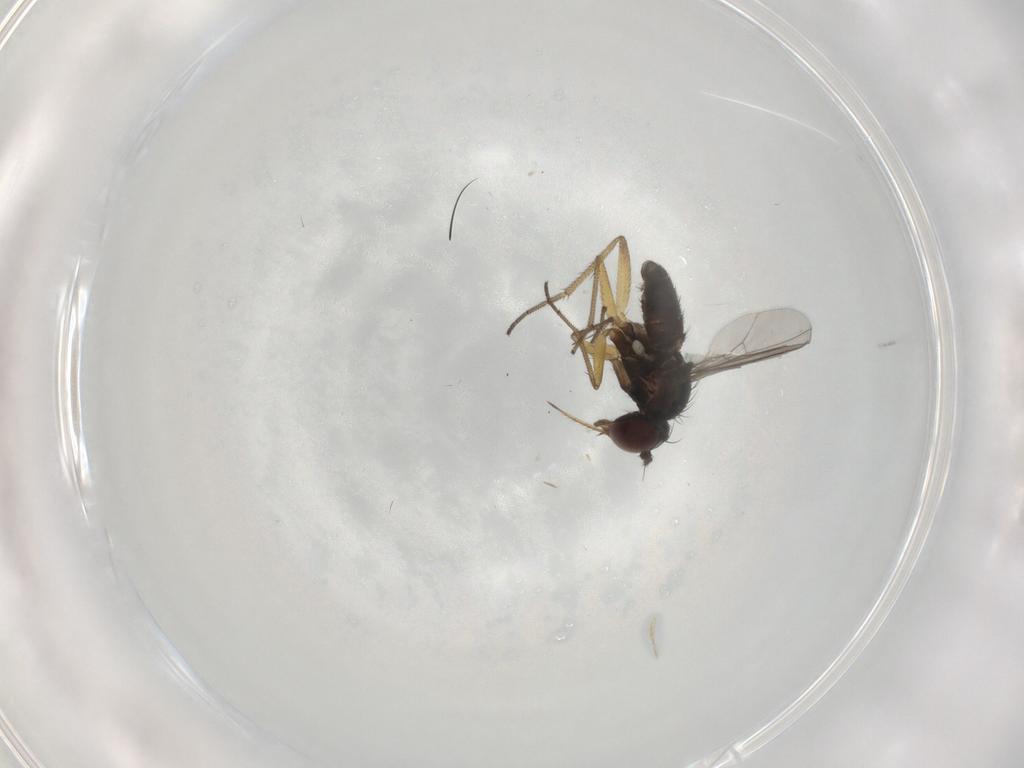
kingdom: Animalia
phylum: Arthropoda
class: Insecta
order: Diptera
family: Dolichopodidae
